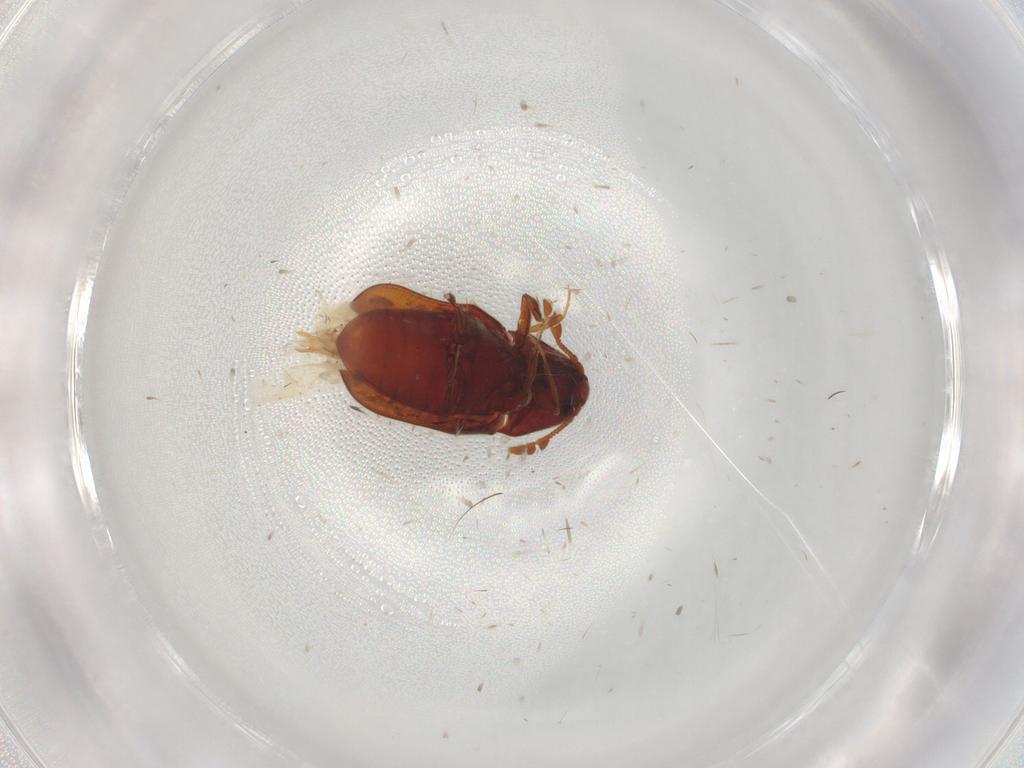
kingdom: Animalia
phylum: Arthropoda
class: Insecta
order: Coleoptera
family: Throscidae
